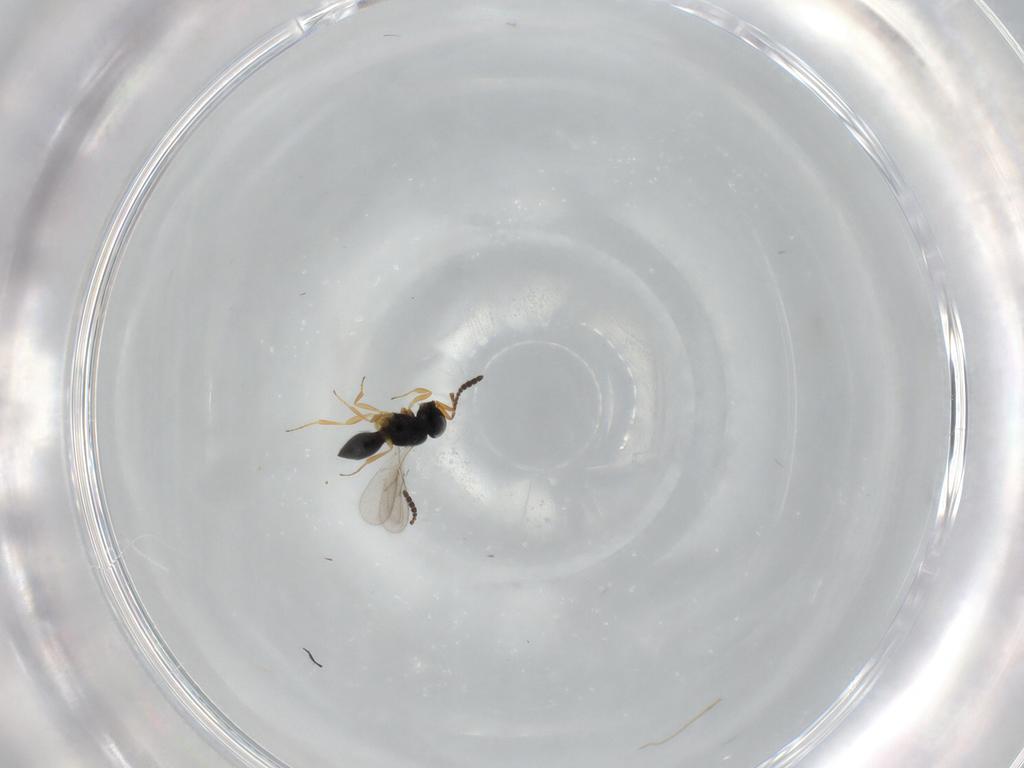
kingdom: Animalia
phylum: Arthropoda
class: Insecta
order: Hymenoptera
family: Scelionidae
